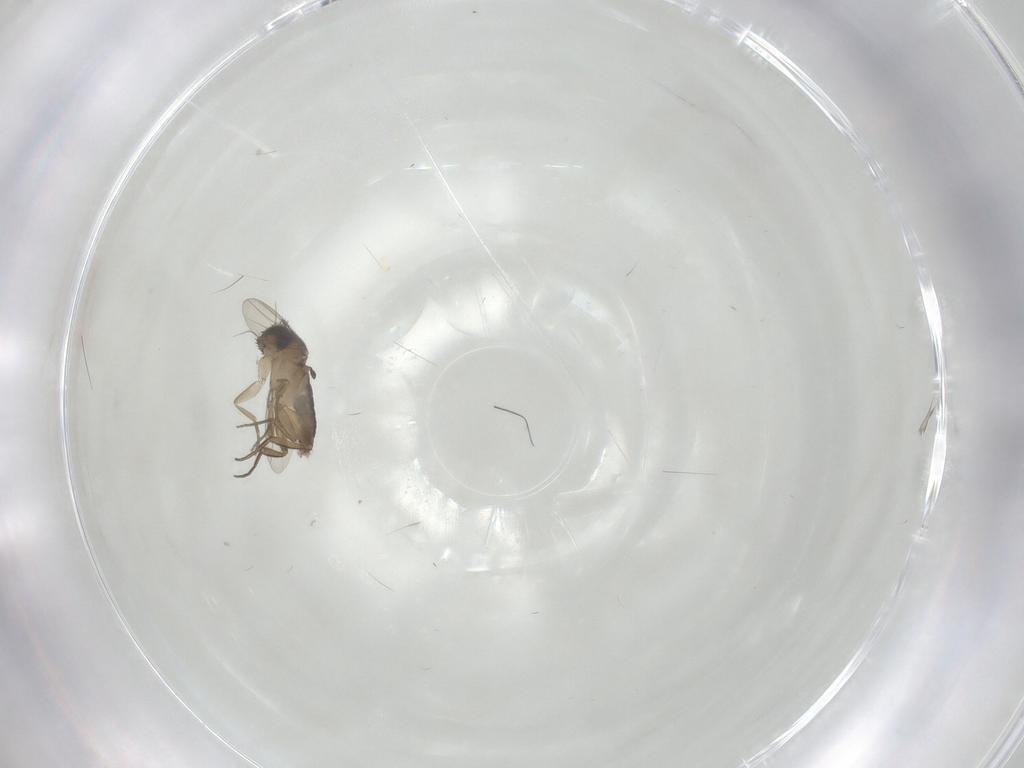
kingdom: Animalia
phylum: Arthropoda
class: Insecta
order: Diptera
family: Phoridae
